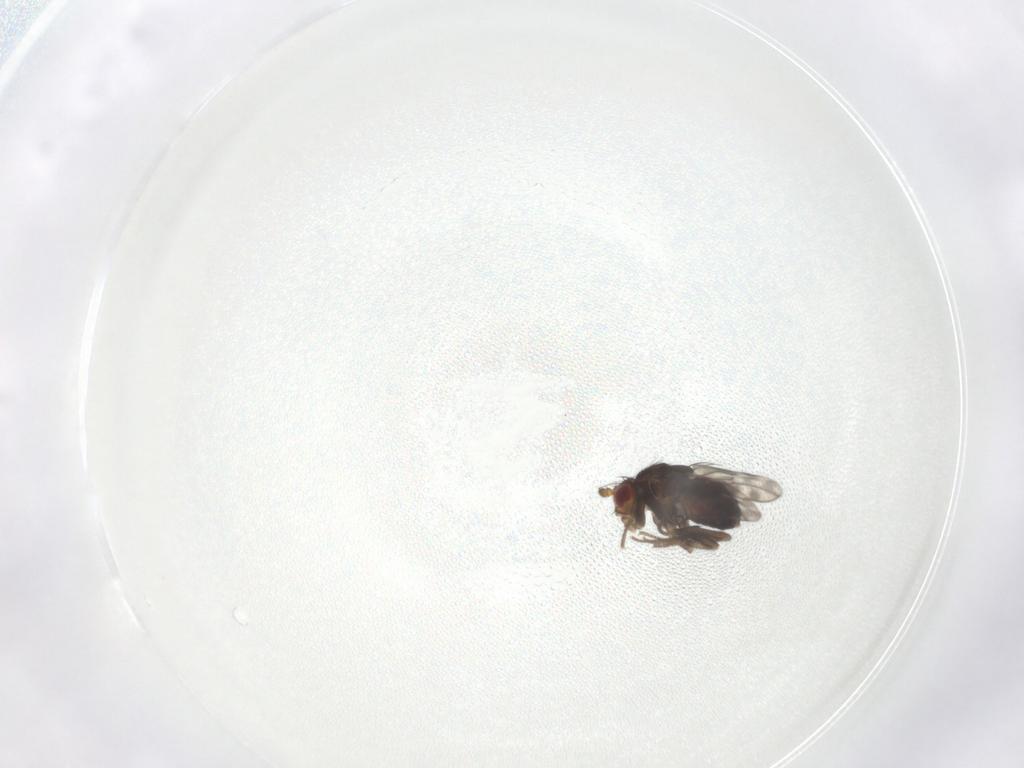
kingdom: Animalia
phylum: Arthropoda
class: Insecta
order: Diptera
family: Sphaeroceridae
